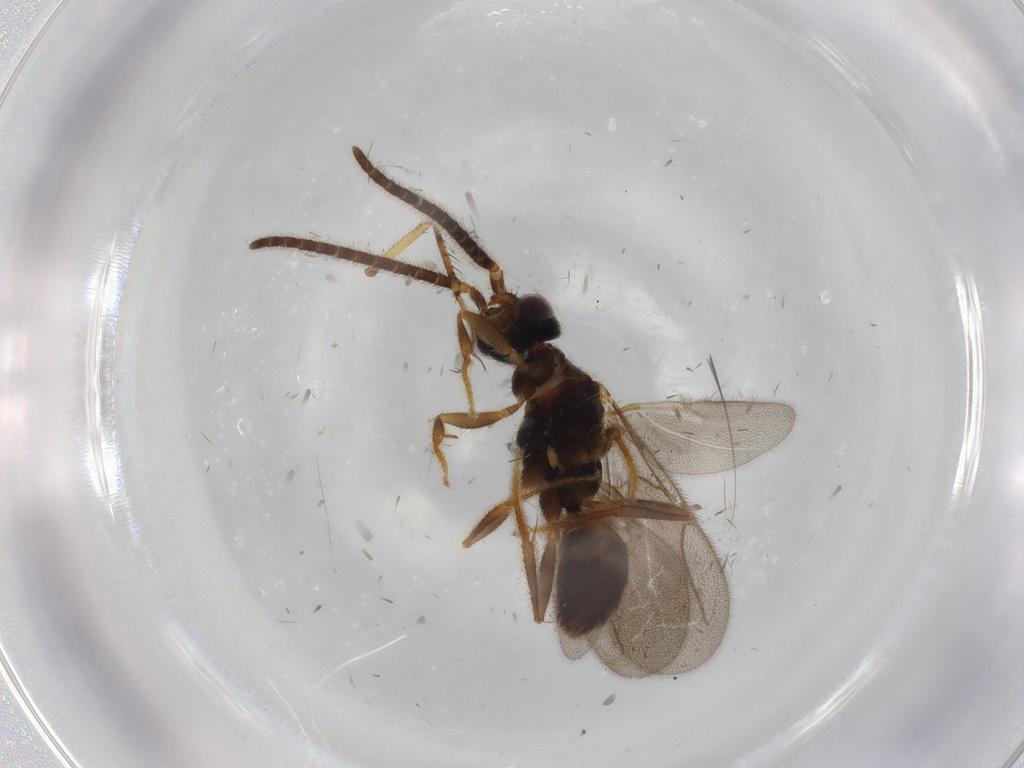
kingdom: Animalia
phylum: Arthropoda
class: Insecta
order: Hymenoptera
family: Bethylidae
